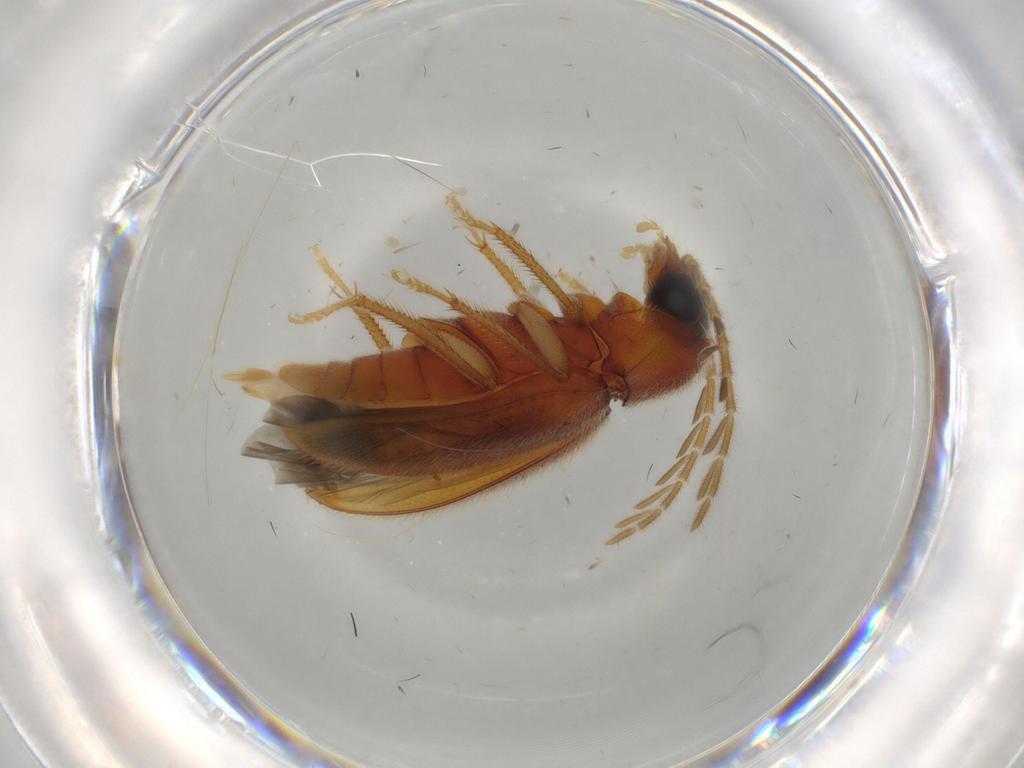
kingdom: Animalia
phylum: Arthropoda
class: Insecta
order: Coleoptera
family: Ptilodactylidae
